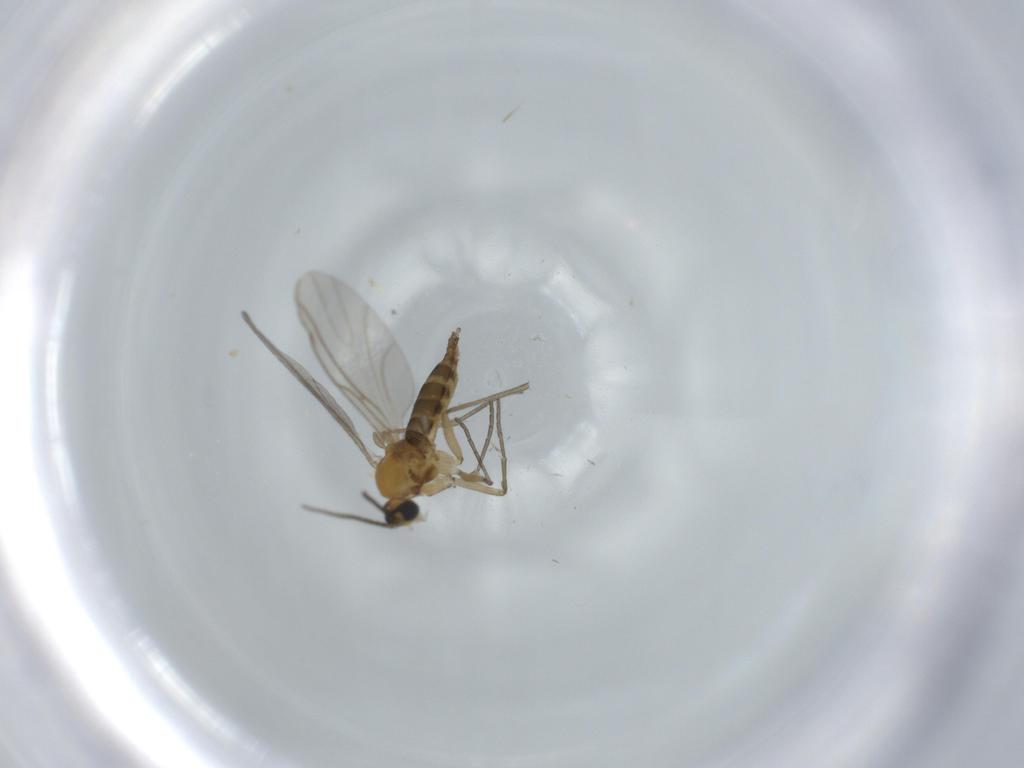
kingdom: Animalia
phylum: Arthropoda
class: Insecta
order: Diptera
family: Sciaridae
